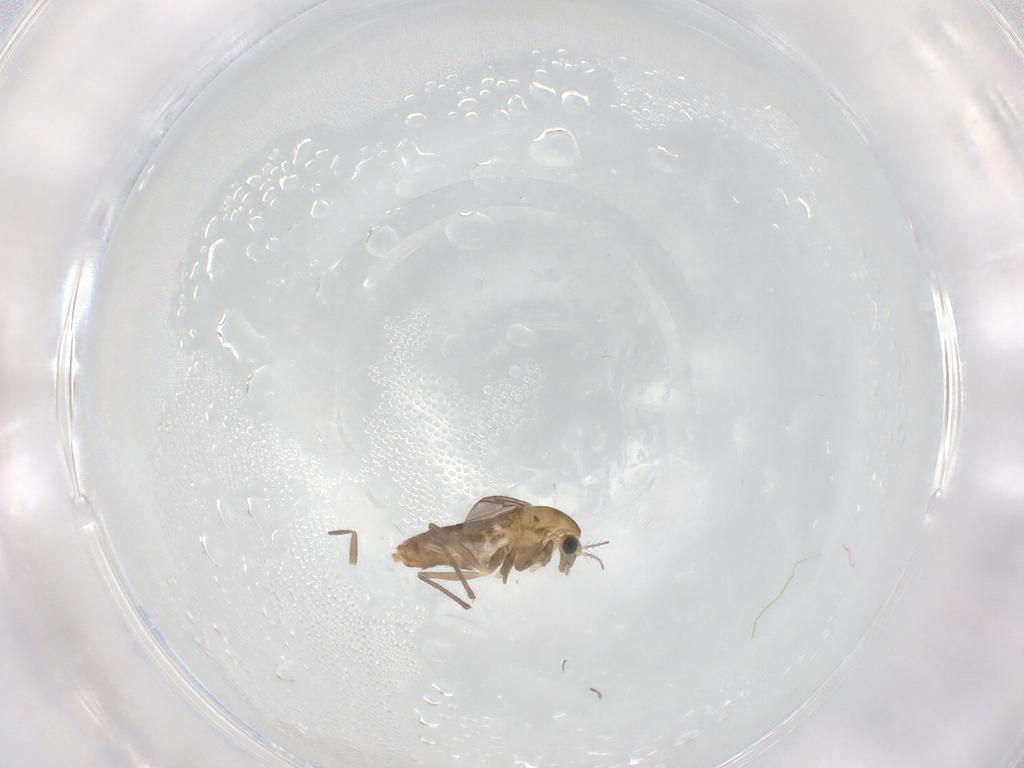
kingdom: Animalia
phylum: Arthropoda
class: Insecta
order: Diptera
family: Chironomidae
